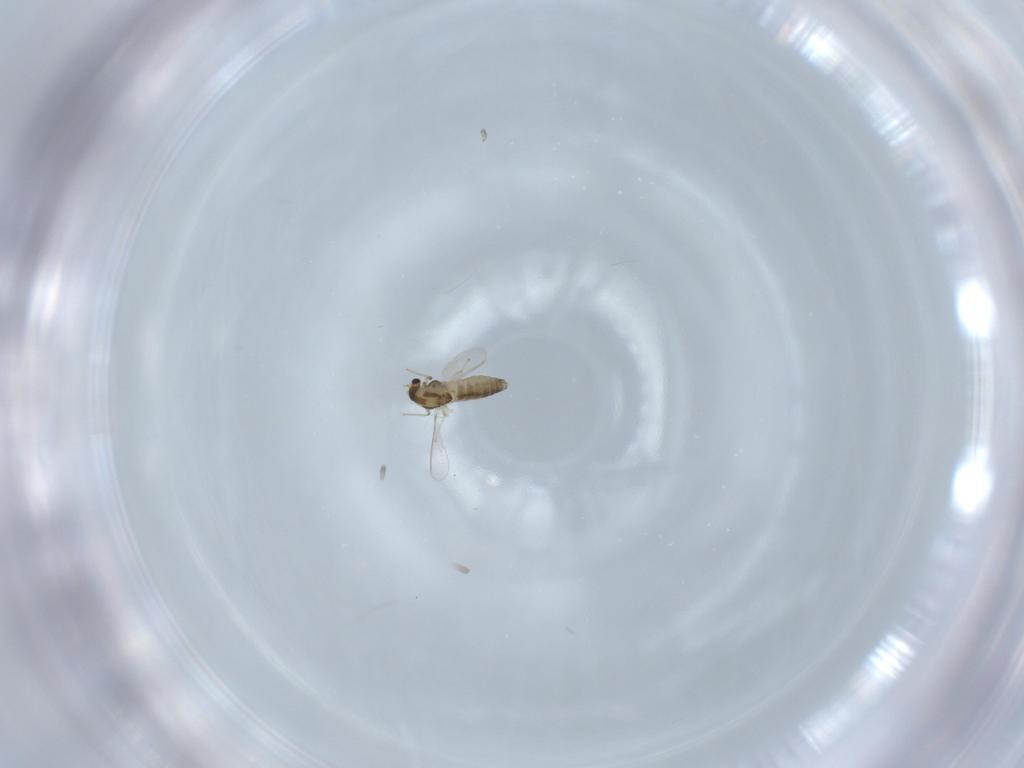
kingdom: Animalia
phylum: Arthropoda
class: Insecta
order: Diptera
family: Chironomidae
